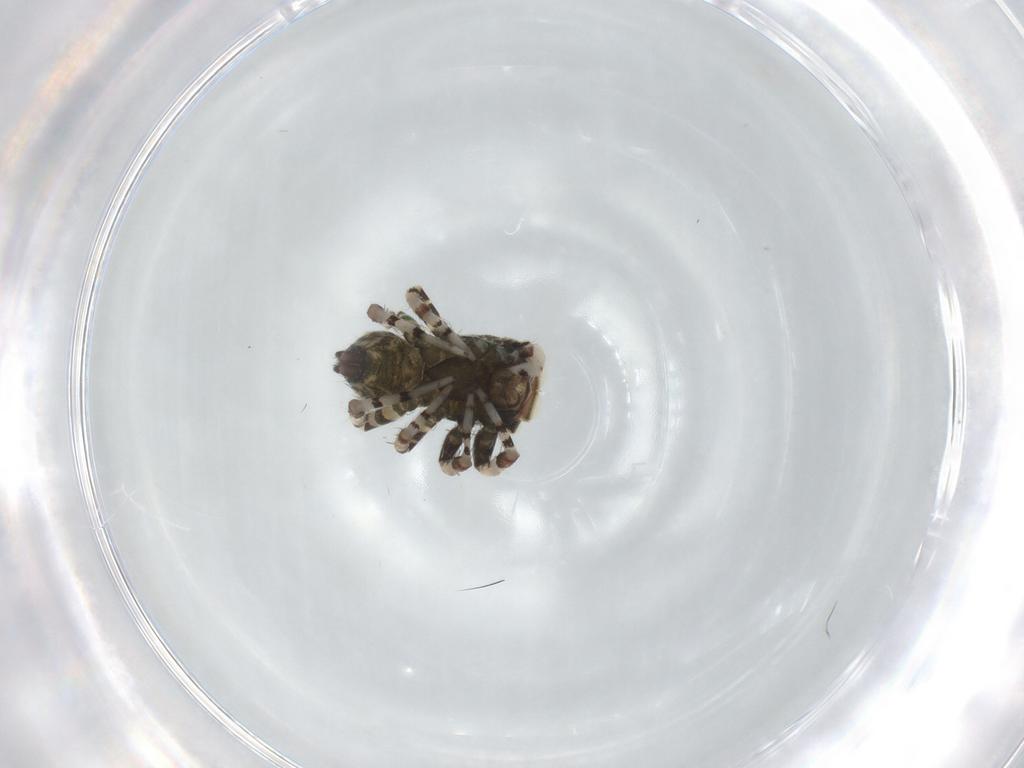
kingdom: Animalia
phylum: Arthropoda
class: Arachnida
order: Araneae
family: Salticidae
